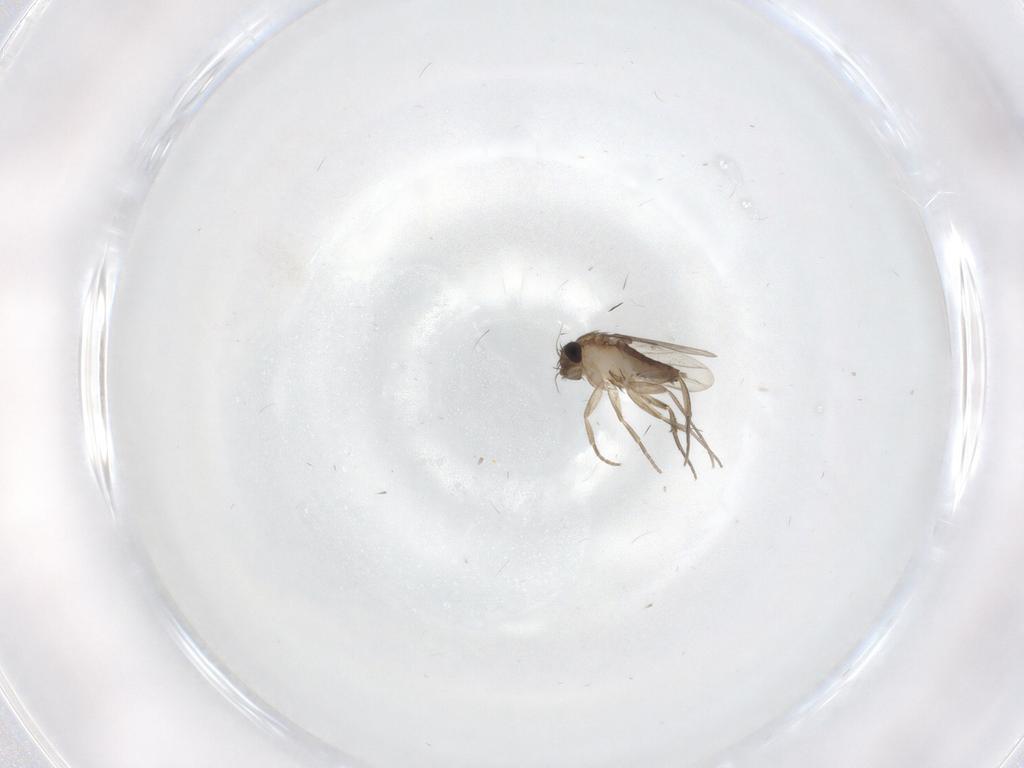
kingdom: Animalia
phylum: Arthropoda
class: Insecta
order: Diptera
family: Phoridae
